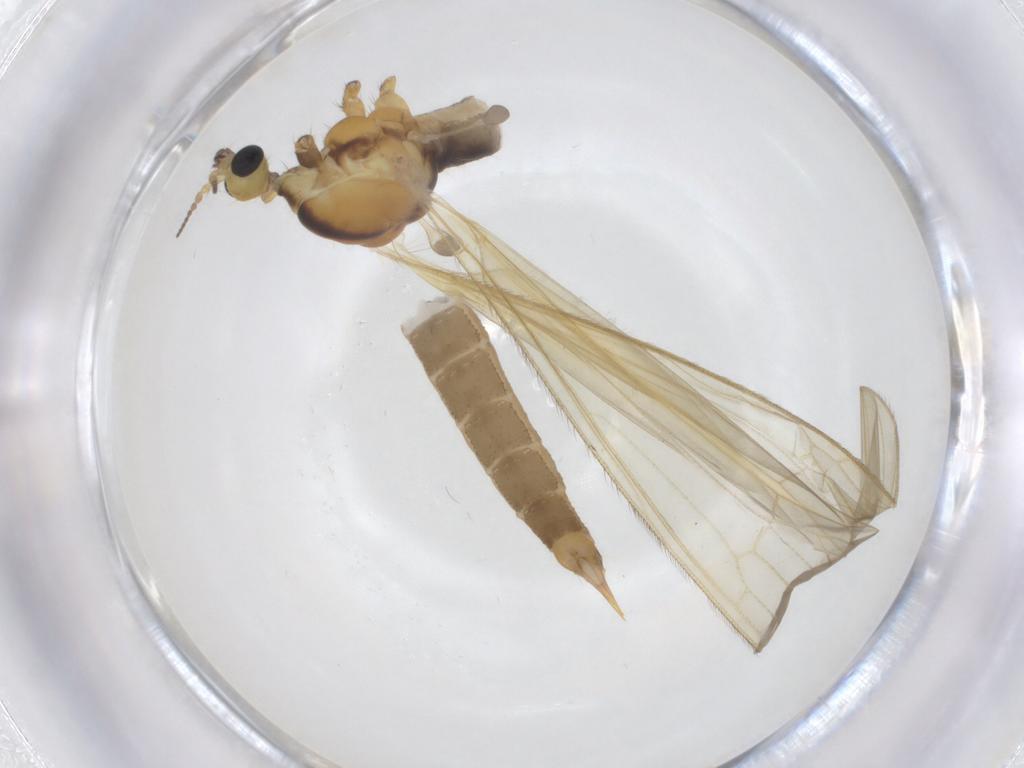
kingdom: Animalia
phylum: Arthropoda
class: Insecta
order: Diptera
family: Limoniidae
